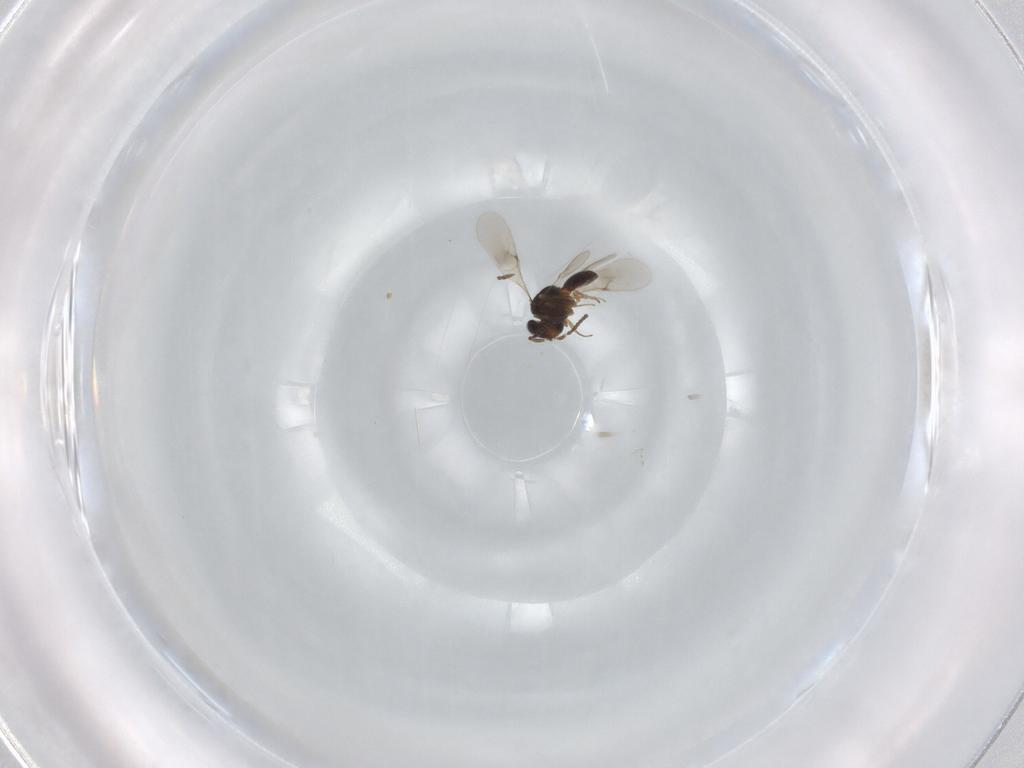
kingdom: Animalia
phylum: Arthropoda
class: Insecta
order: Hymenoptera
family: Scelionidae
